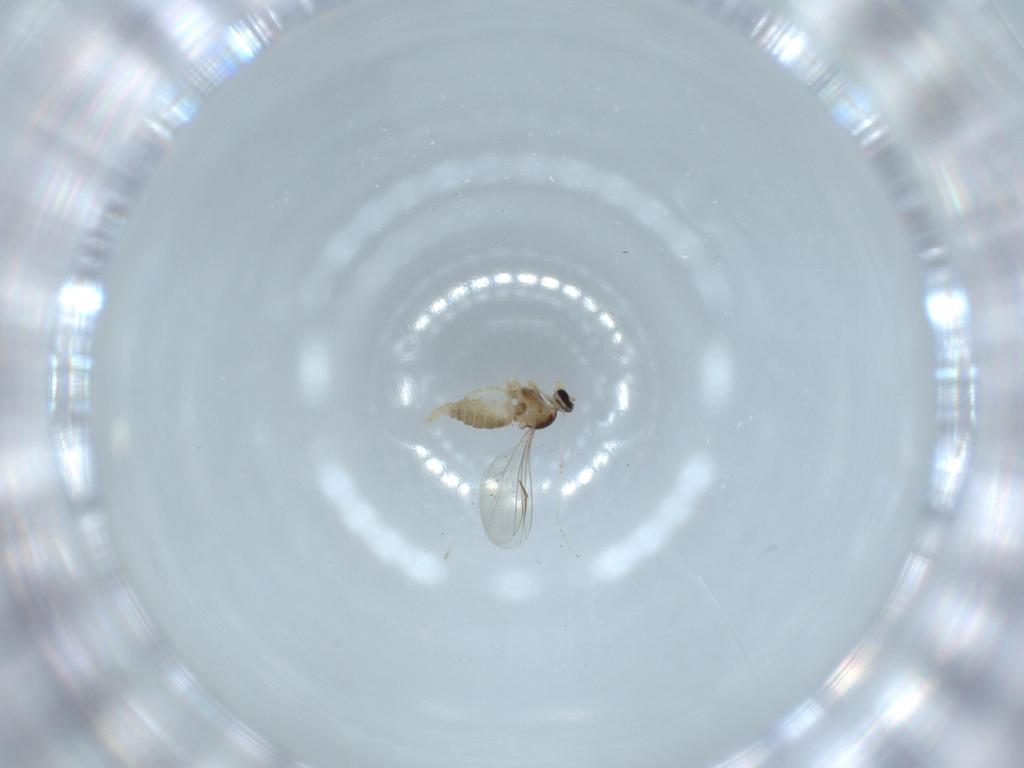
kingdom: Animalia
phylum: Arthropoda
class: Insecta
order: Diptera
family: Cecidomyiidae
